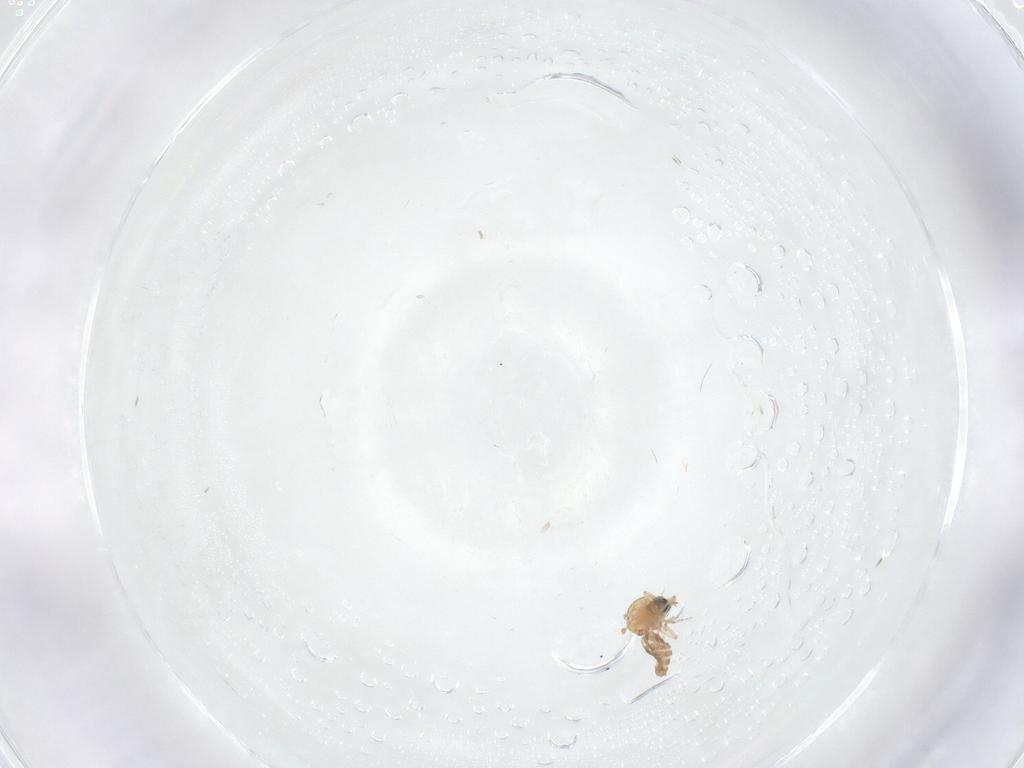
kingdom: Animalia
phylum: Arthropoda
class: Insecta
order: Diptera
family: Ceratopogonidae
